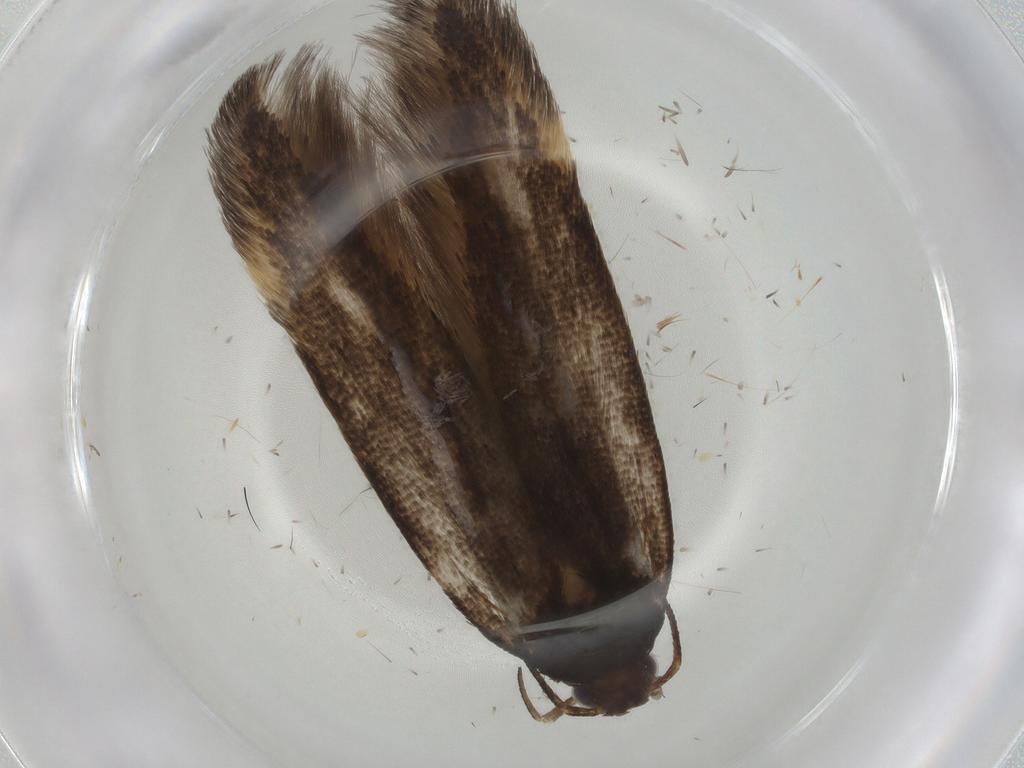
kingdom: Animalia
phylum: Arthropoda
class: Insecta
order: Lepidoptera
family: Gelechiidae
